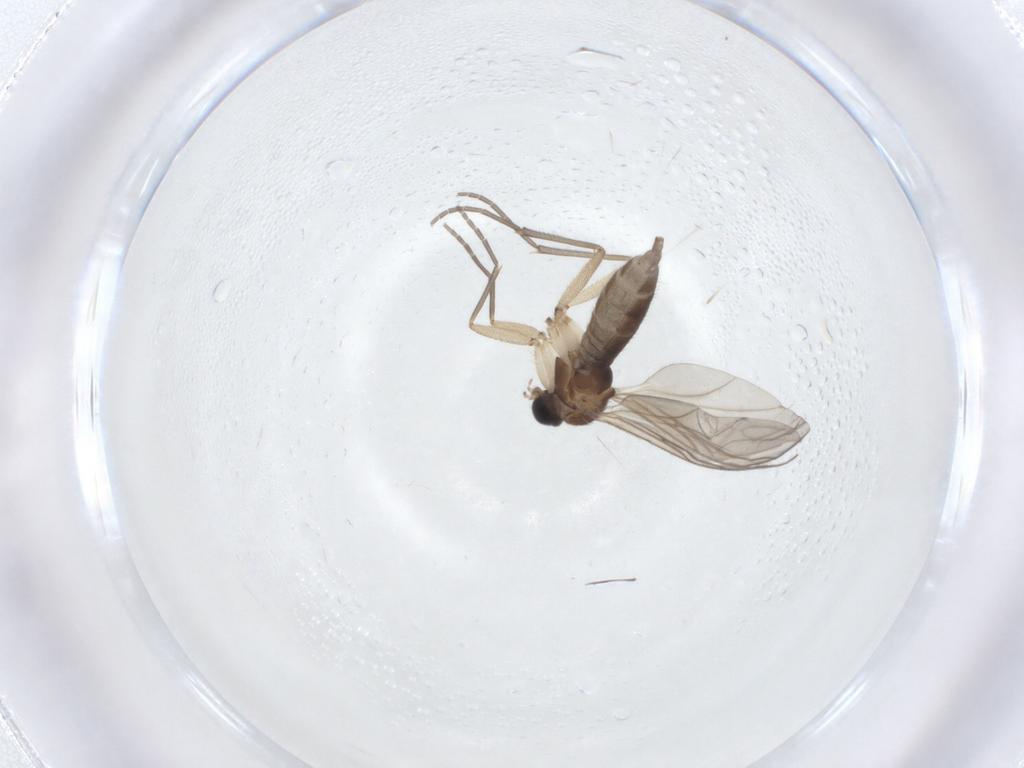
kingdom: Animalia
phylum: Arthropoda
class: Insecta
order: Diptera
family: Sciaridae
